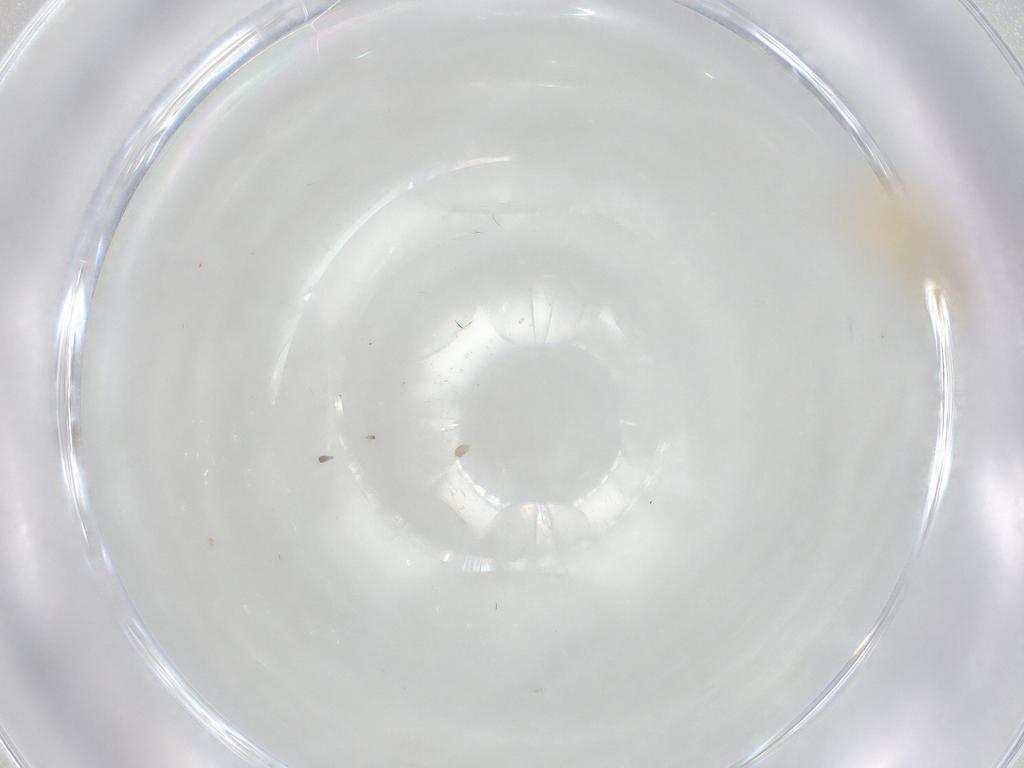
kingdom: Animalia
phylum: Arthropoda
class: Insecta
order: Diptera
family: Chironomidae
